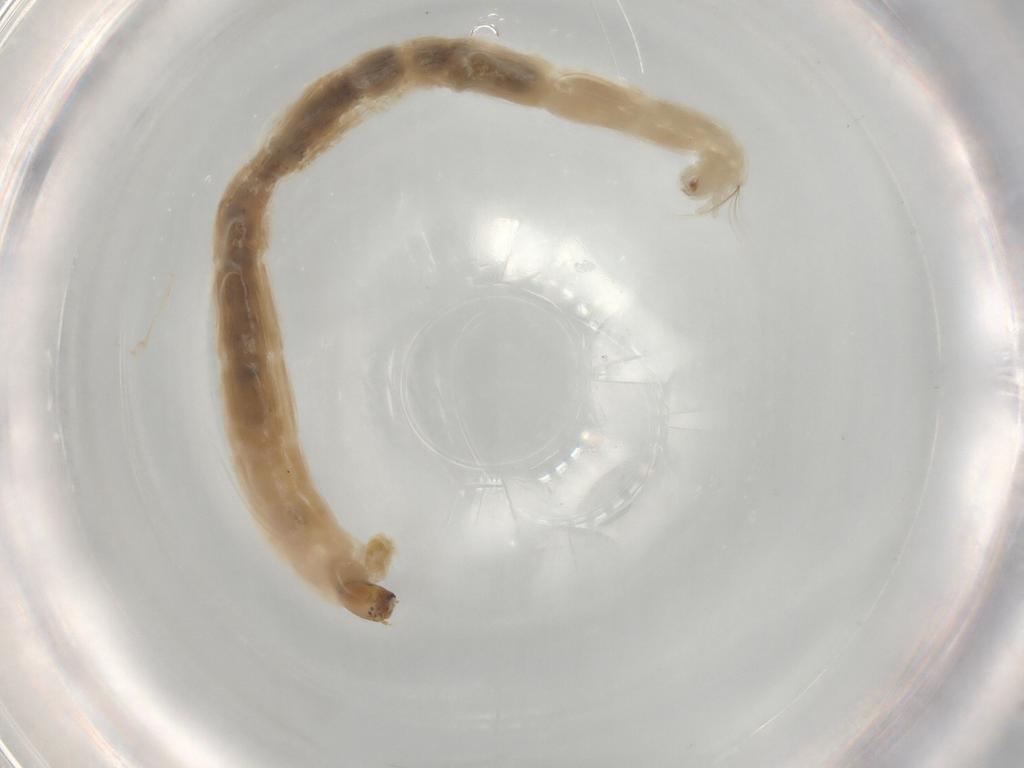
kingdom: Animalia
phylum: Arthropoda
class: Insecta
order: Diptera
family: Chironomidae
